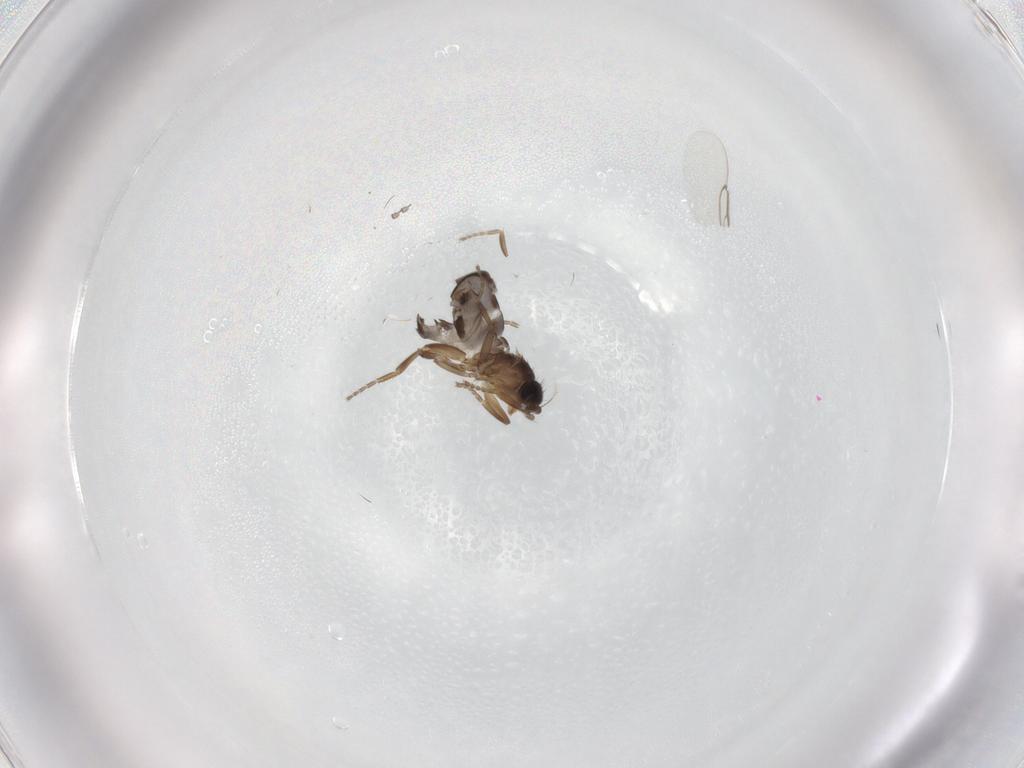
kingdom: Animalia
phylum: Arthropoda
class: Insecta
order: Diptera
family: Phoridae
